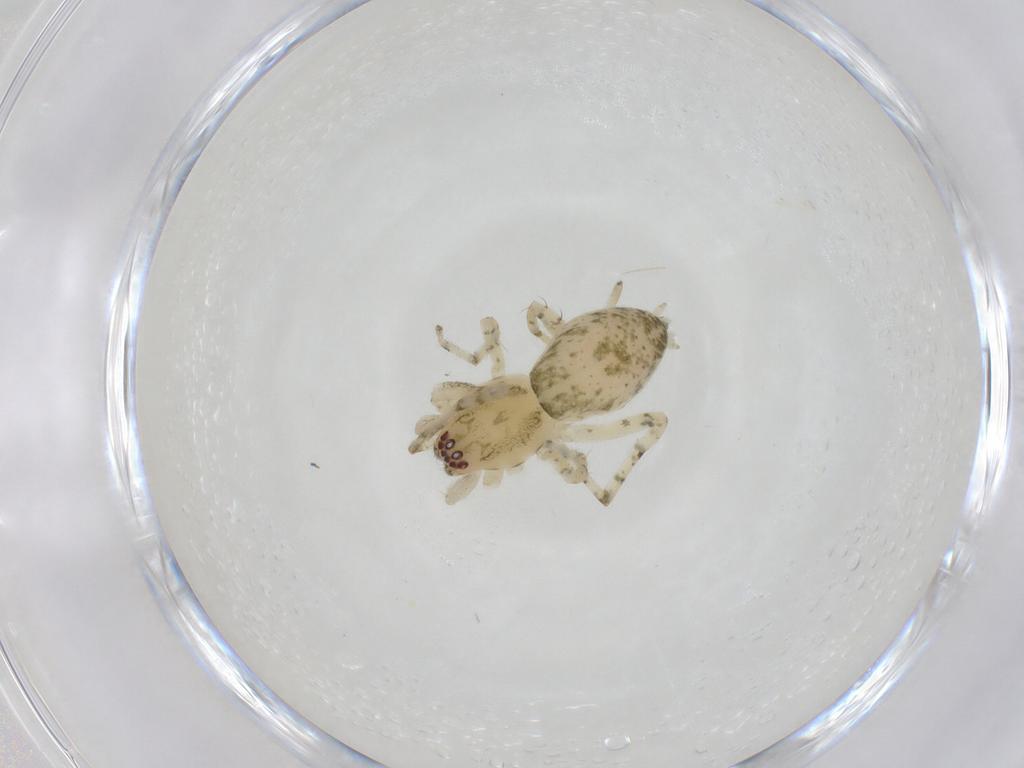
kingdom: Animalia
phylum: Arthropoda
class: Arachnida
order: Araneae
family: Anyphaenidae
